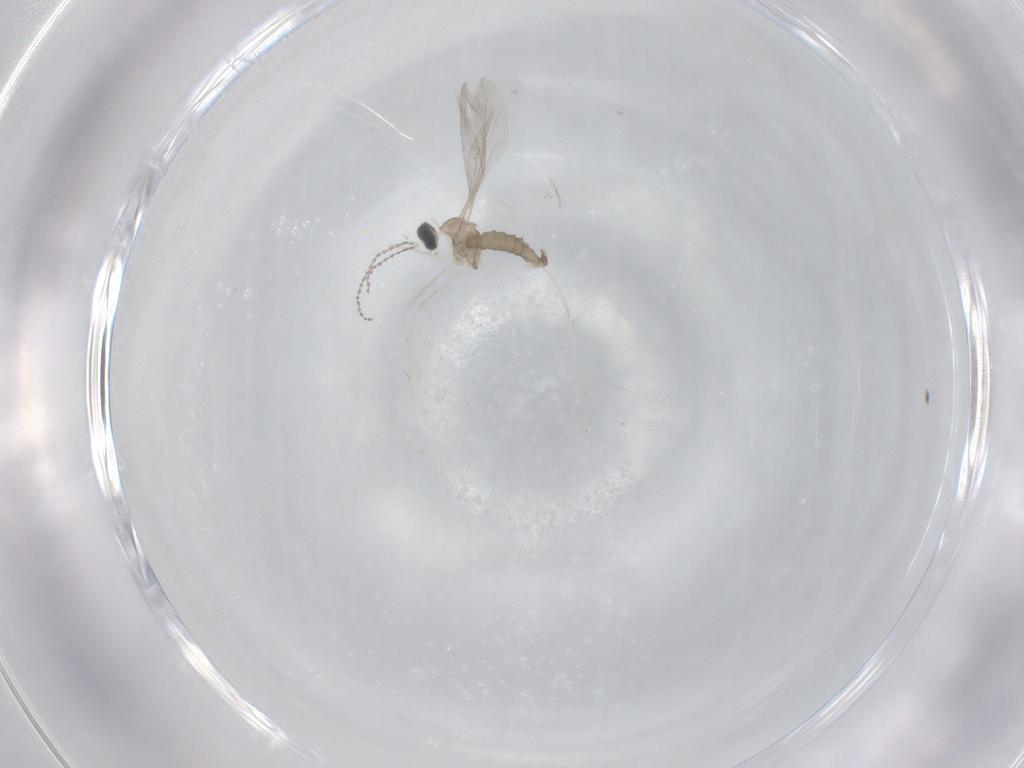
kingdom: Animalia
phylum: Arthropoda
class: Insecta
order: Diptera
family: Cecidomyiidae
